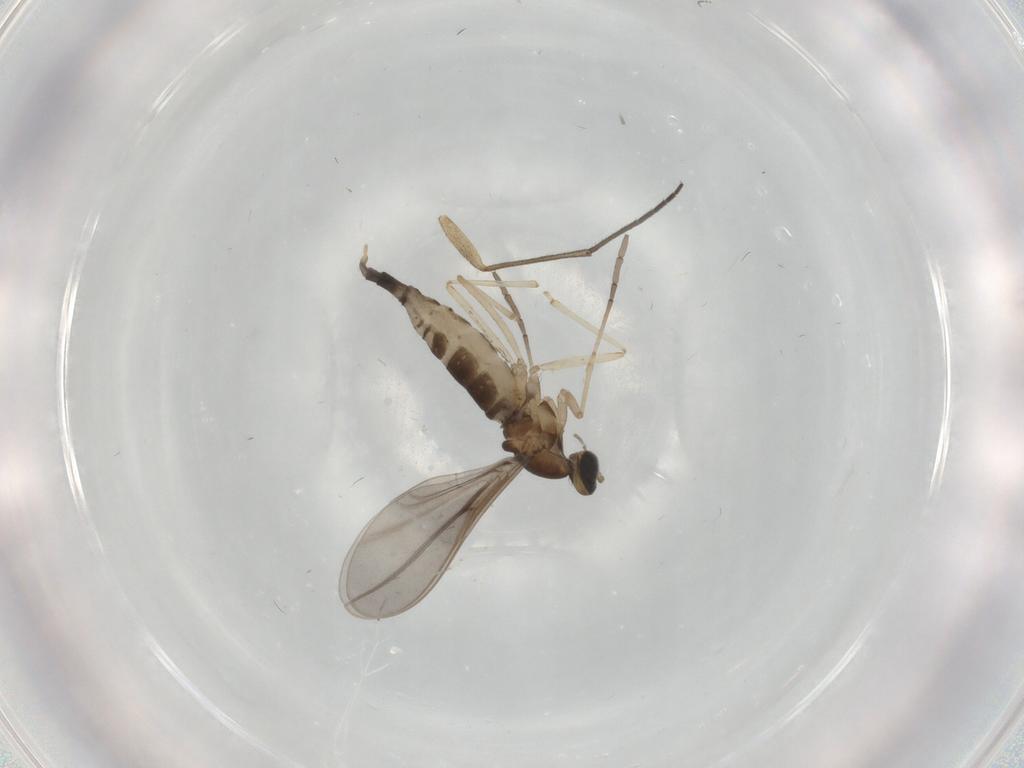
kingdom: Animalia
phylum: Arthropoda
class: Insecta
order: Diptera
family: Cecidomyiidae
